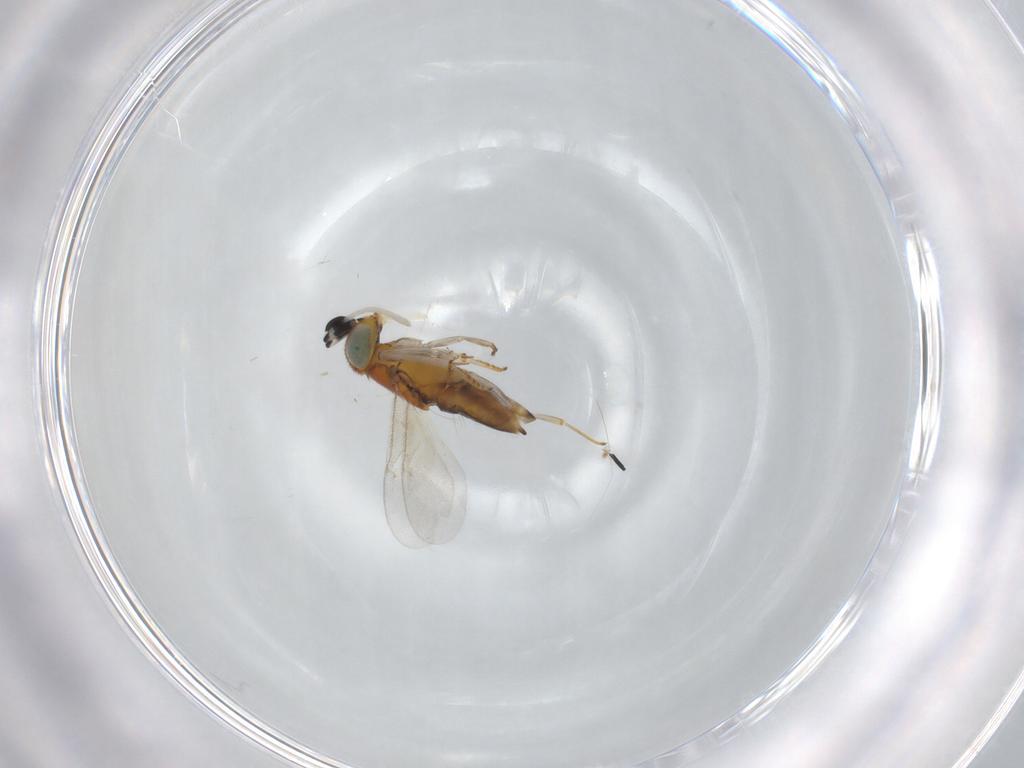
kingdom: Animalia
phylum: Arthropoda
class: Insecta
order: Hymenoptera
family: Encyrtidae
